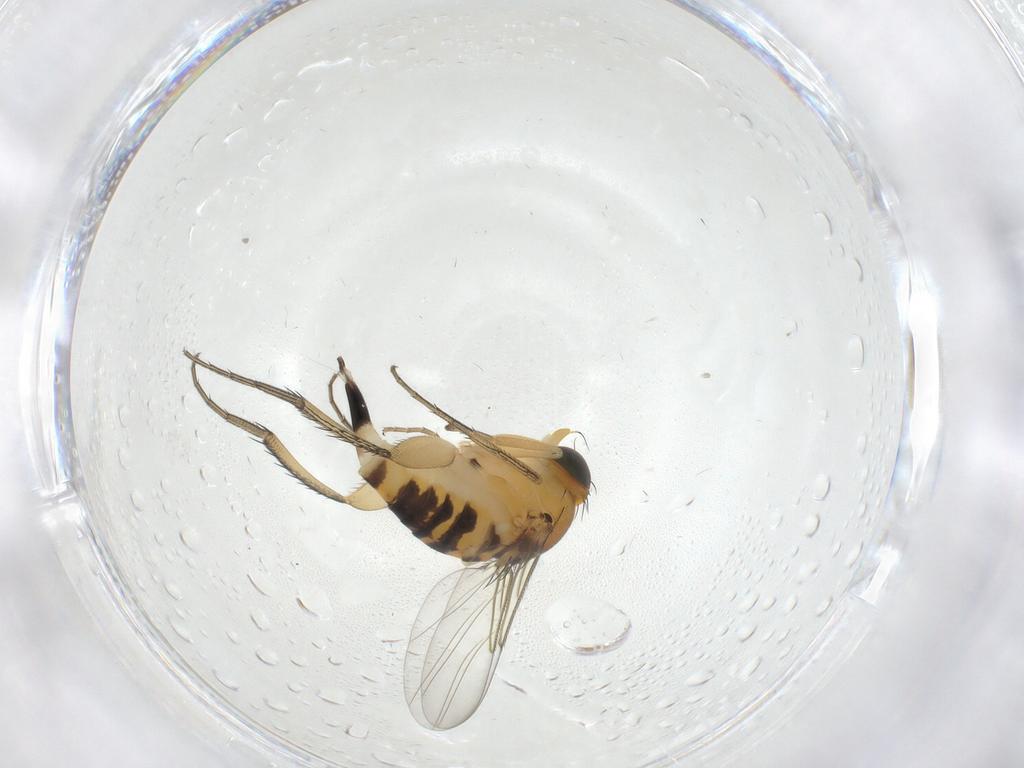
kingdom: Animalia
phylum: Arthropoda
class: Insecta
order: Diptera
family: Phoridae
